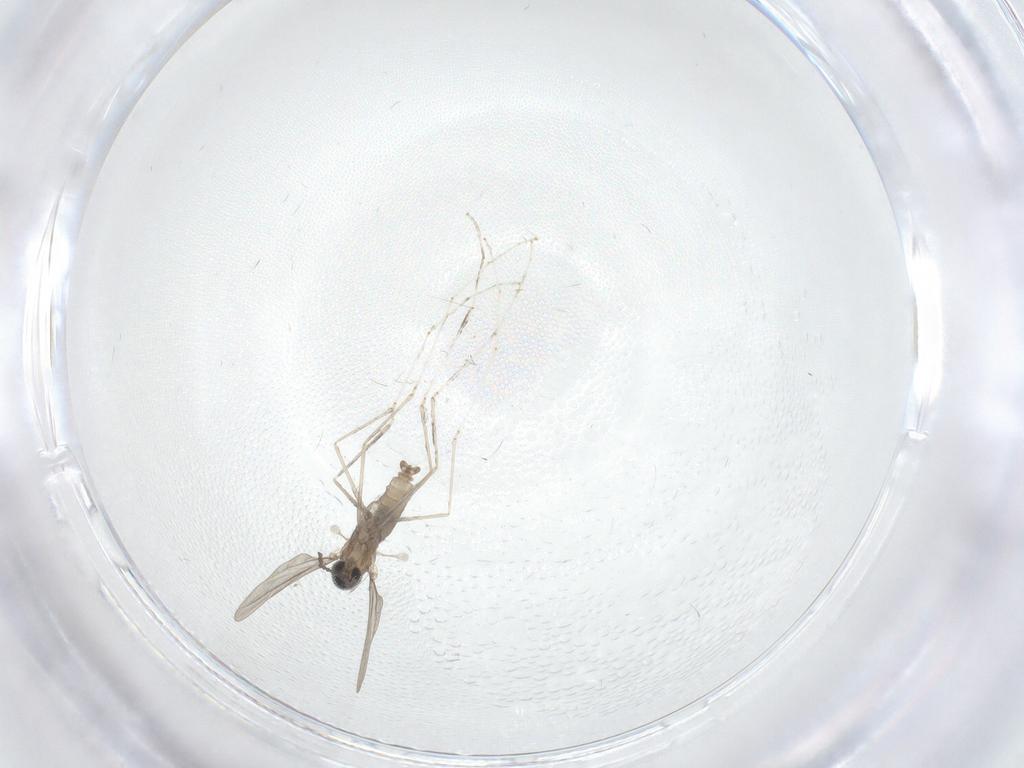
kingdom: Animalia
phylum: Arthropoda
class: Insecta
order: Diptera
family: Cecidomyiidae
